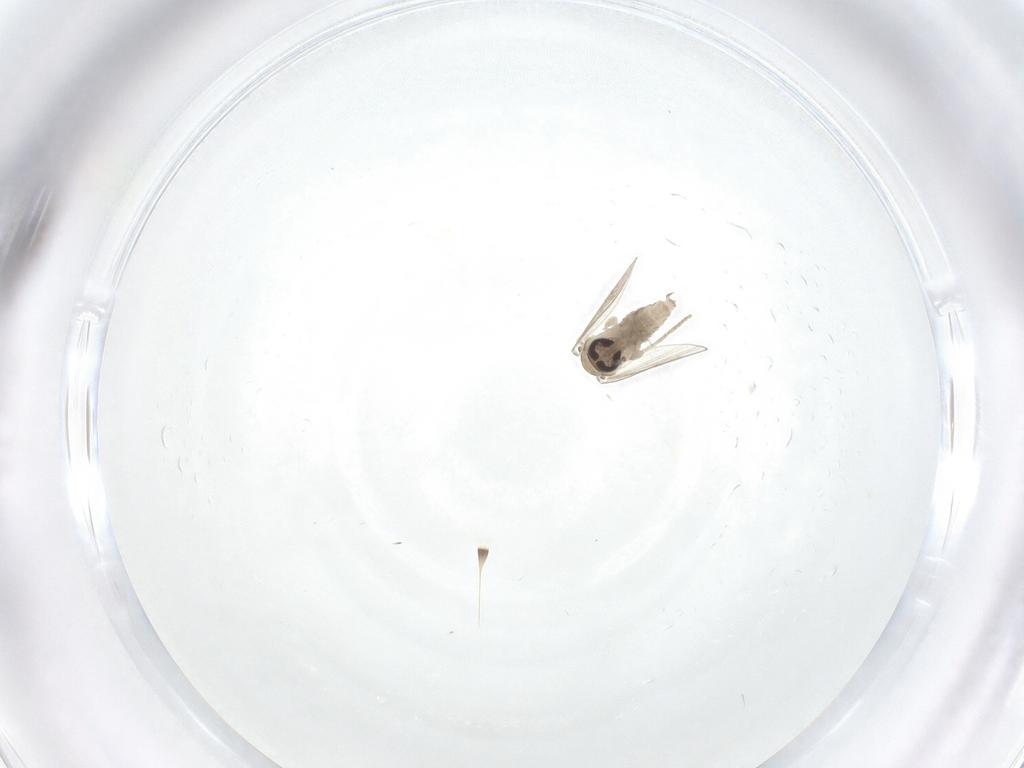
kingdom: Animalia
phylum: Arthropoda
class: Insecta
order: Diptera
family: Psychodidae
